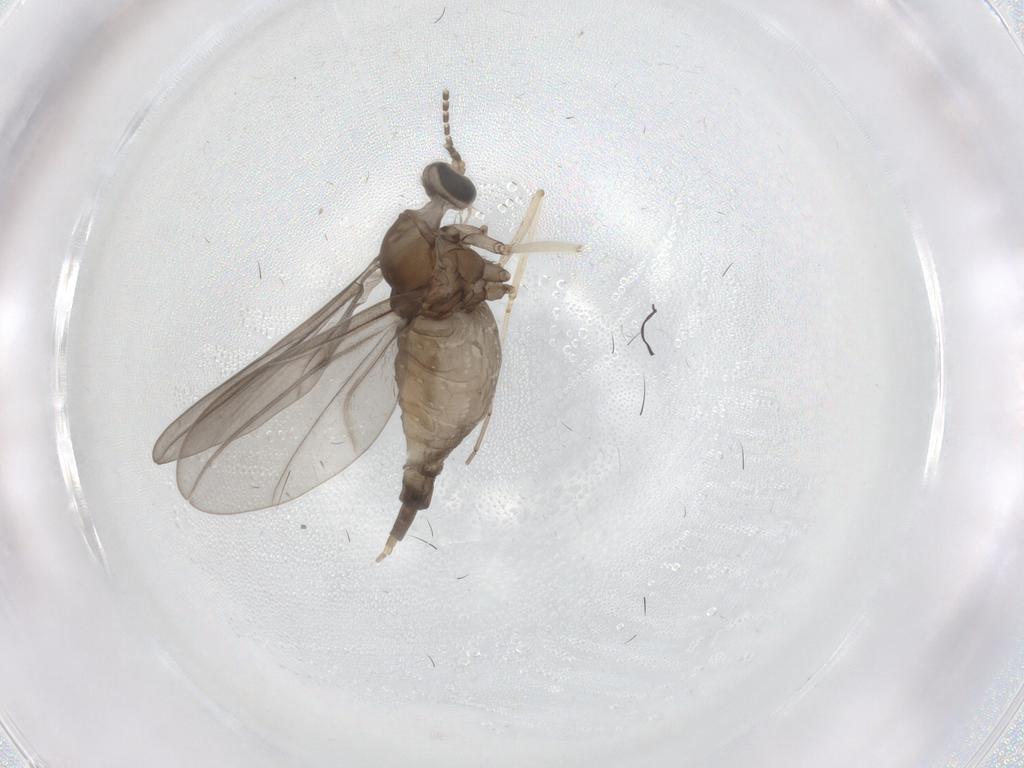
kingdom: Animalia
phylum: Arthropoda
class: Insecta
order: Diptera
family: Cecidomyiidae
